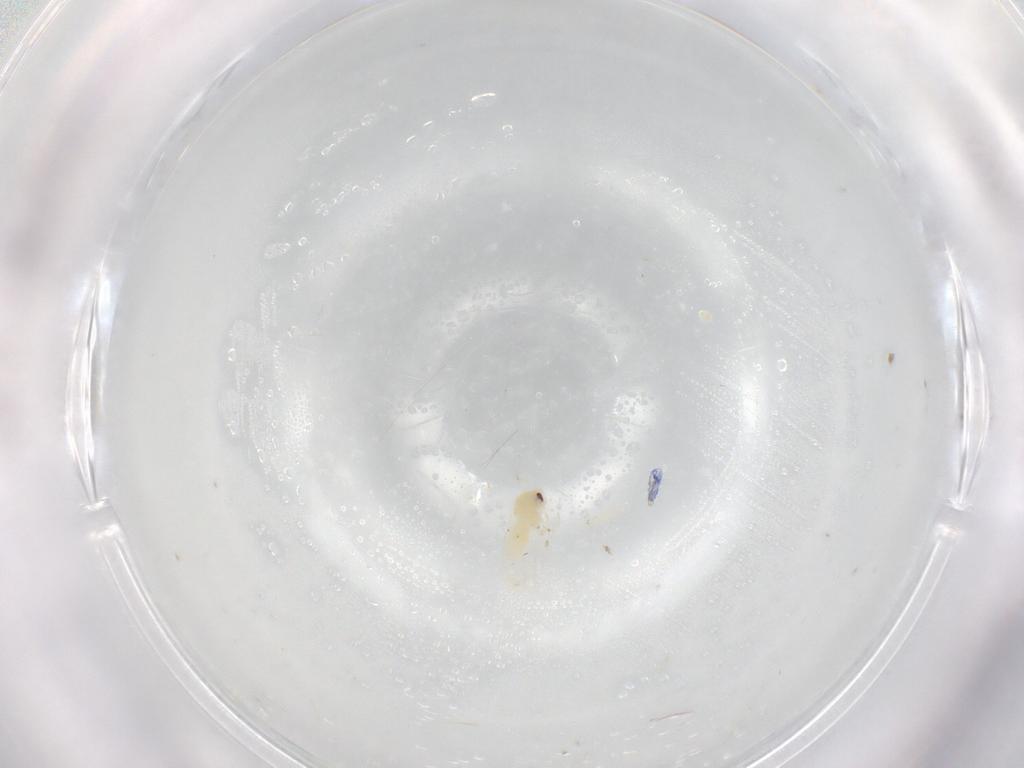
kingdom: Animalia
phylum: Arthropoda
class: Insecta
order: Hemiptera
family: Aleyrodidae
